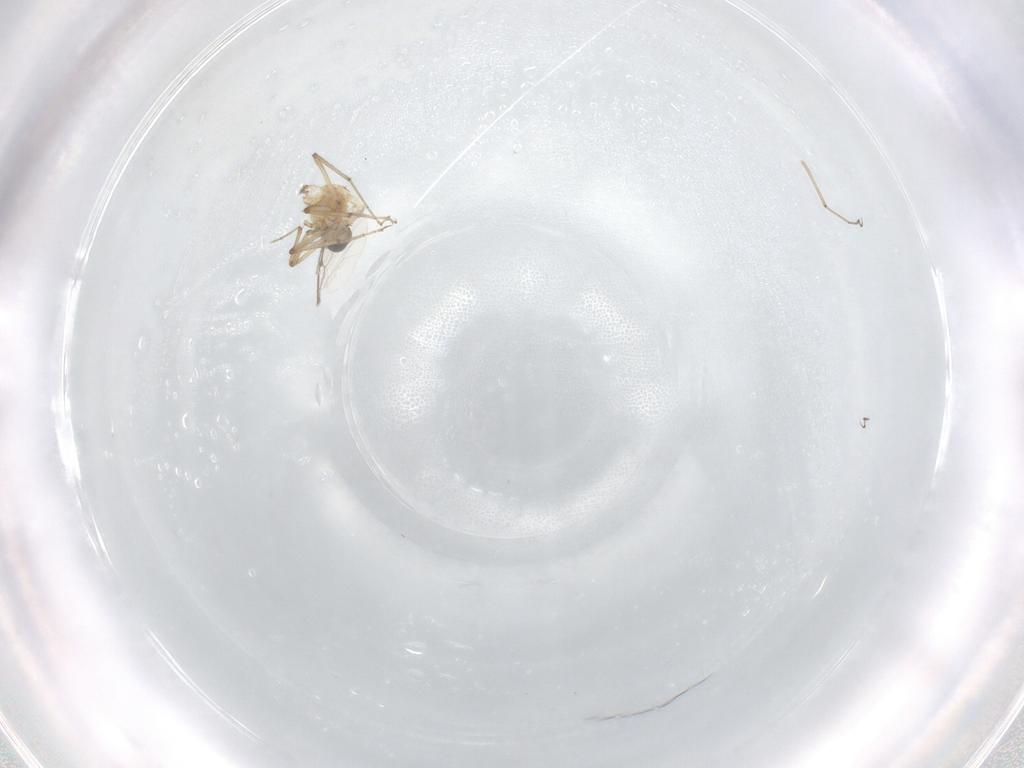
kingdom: Animalia
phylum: Arthropoda
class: Insecta
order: Diptera
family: Ceratopogonidae
